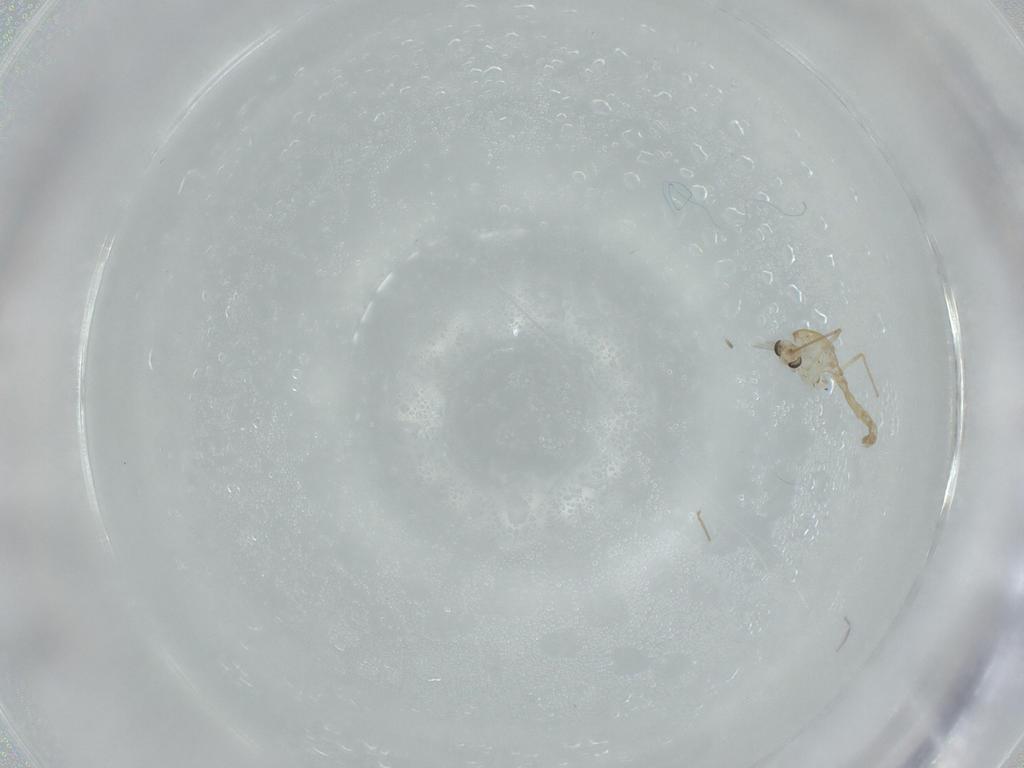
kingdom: Animalia
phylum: Arthropoda
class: Insecta
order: Diptera
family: Chironomidae
